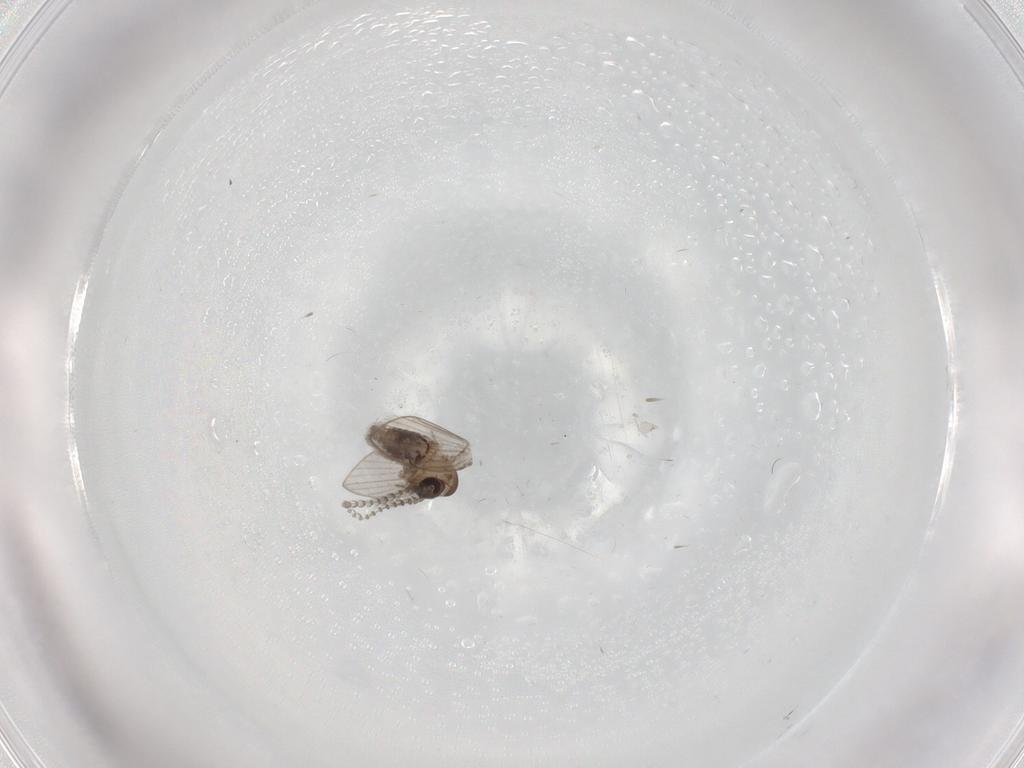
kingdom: Animalia
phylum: Arthropoda
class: Insecta
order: Diptera
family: Psychodidae
